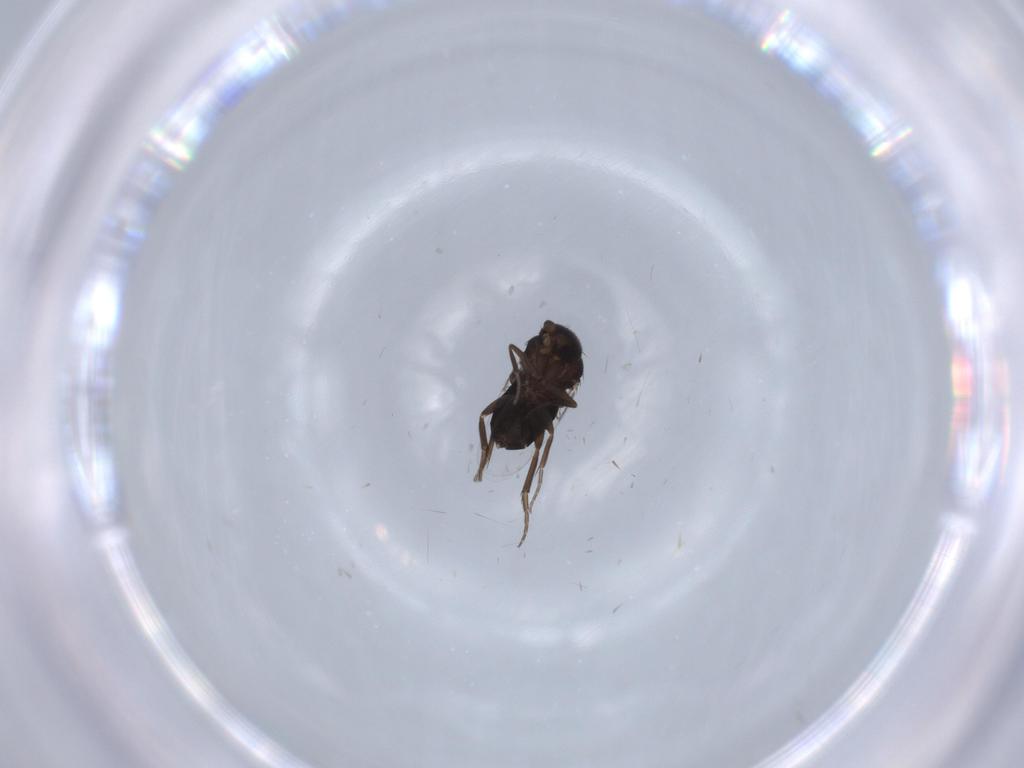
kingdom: Animalia
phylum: Arthropoda
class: Insecta
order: Diptera
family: Phoridae
